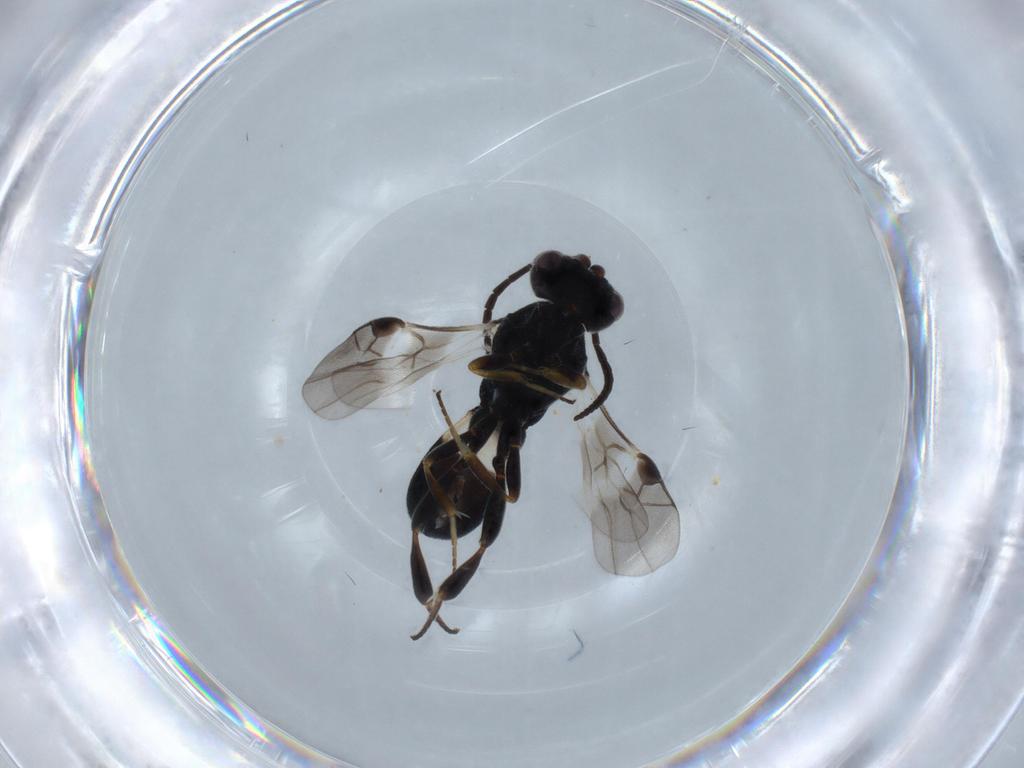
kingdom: Animalia
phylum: Arthropoda
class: Insecta
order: Hymenoptera
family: Braconidae
